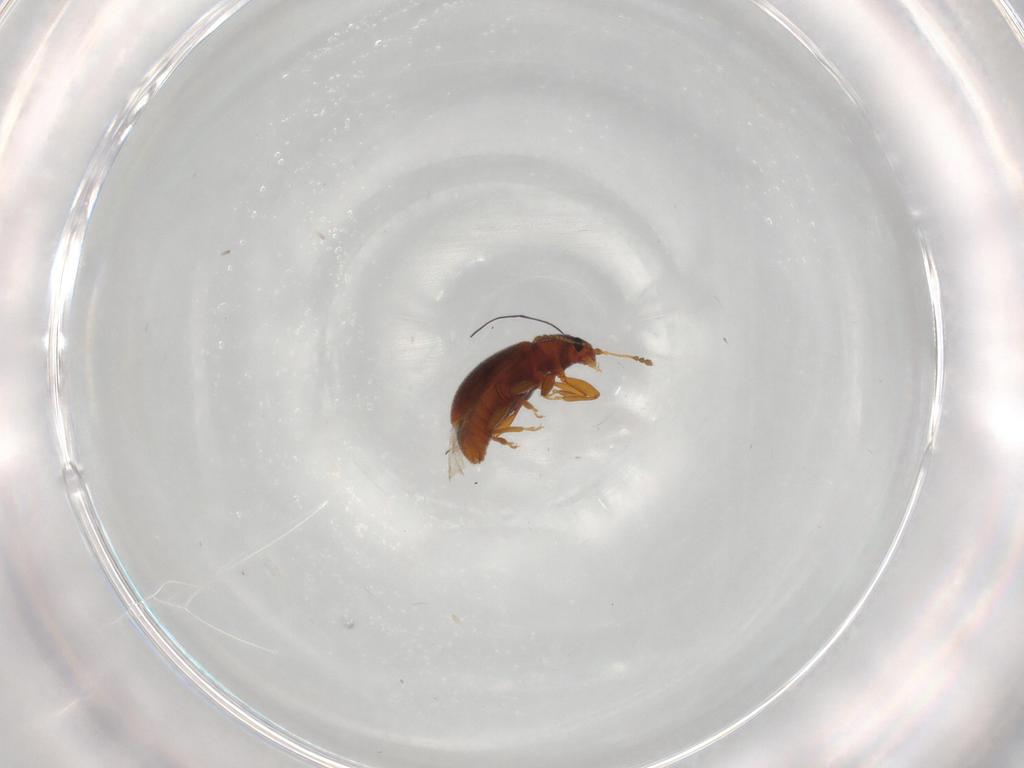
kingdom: Animalia
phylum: Arthropoda
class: Insecta
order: Coleoptera
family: Latridiidae
